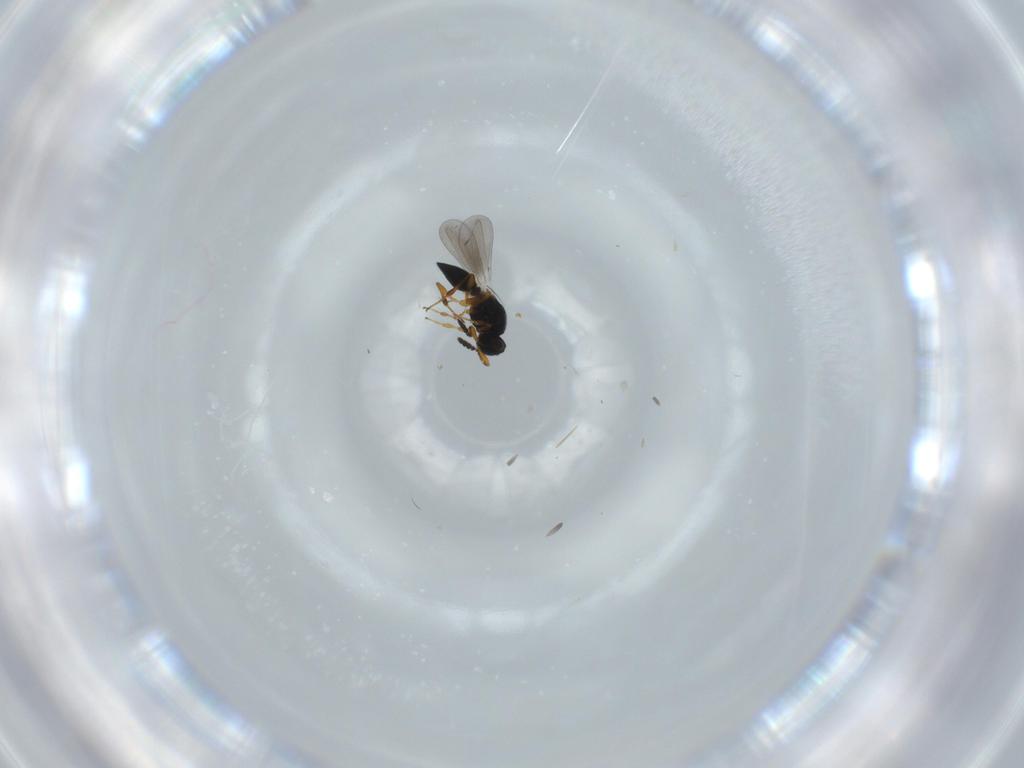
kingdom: Animalia
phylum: Arthropoda
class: Insecta
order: Hymenoptera
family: Platygastridae
